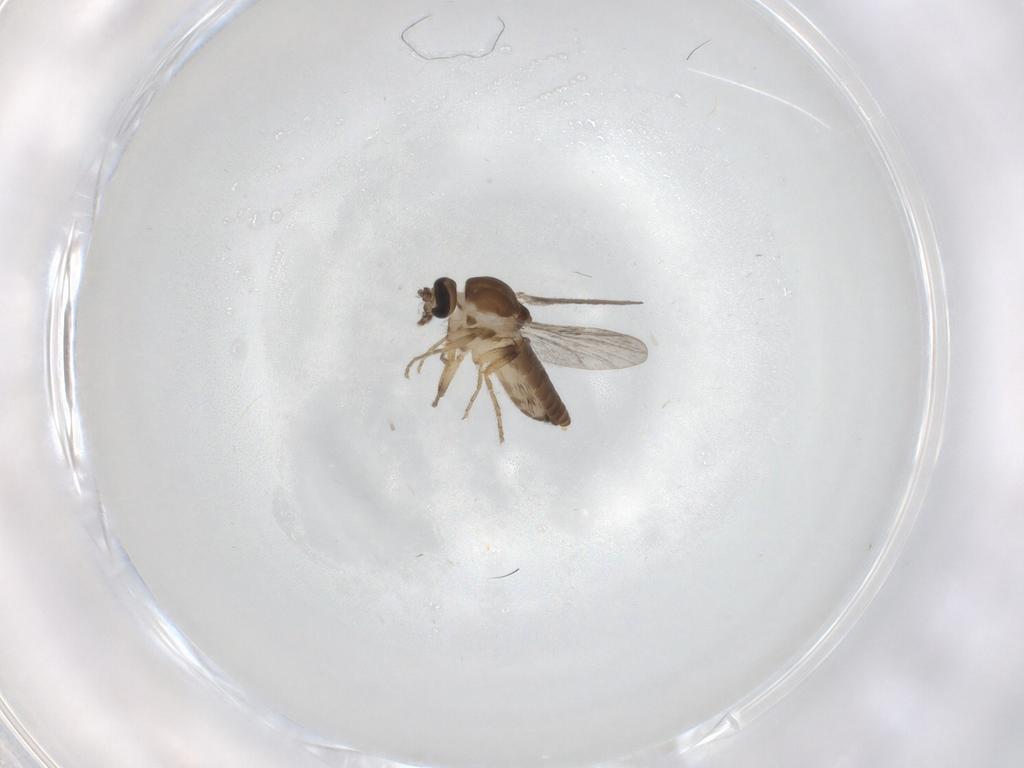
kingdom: Animalia
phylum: Arthropoda
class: Insecta
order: Diptera
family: Ceratopogonidae
